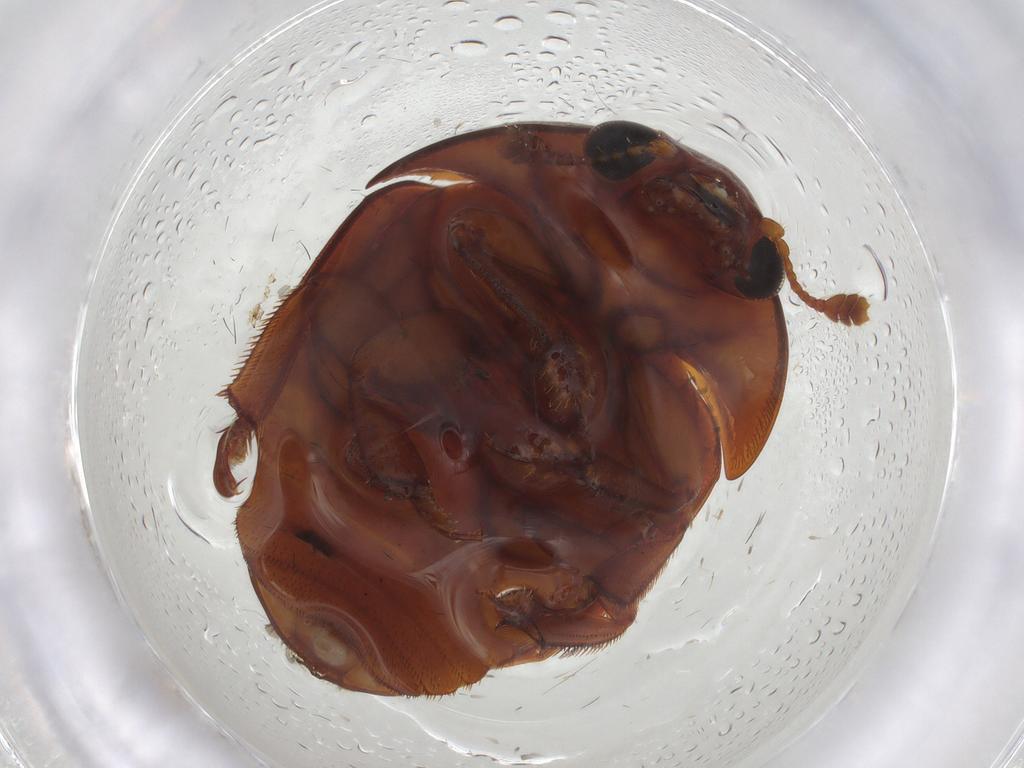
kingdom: Animalia
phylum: Arthropoda
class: Insecta
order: Coleoptera
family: Nitidulidae
